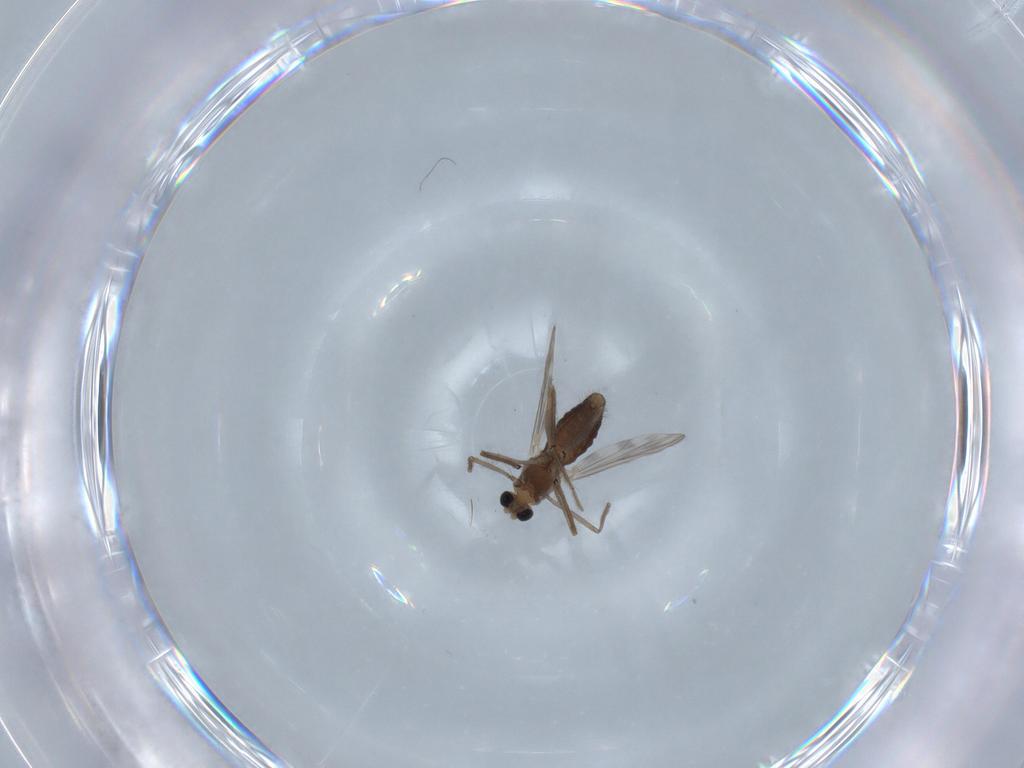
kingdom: Animalia
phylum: Arthropoda
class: Insecta
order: Diptera
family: Chironomidae
